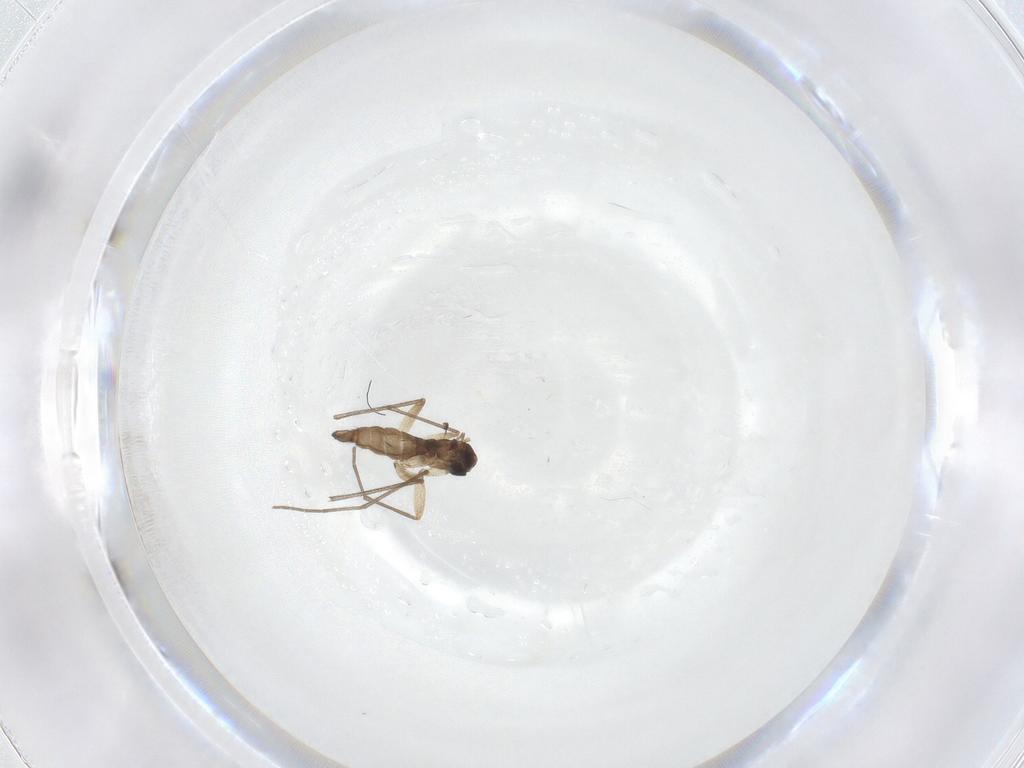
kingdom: Animalia
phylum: Arthropoda
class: Insecta
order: Diptera
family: Sciaridae
